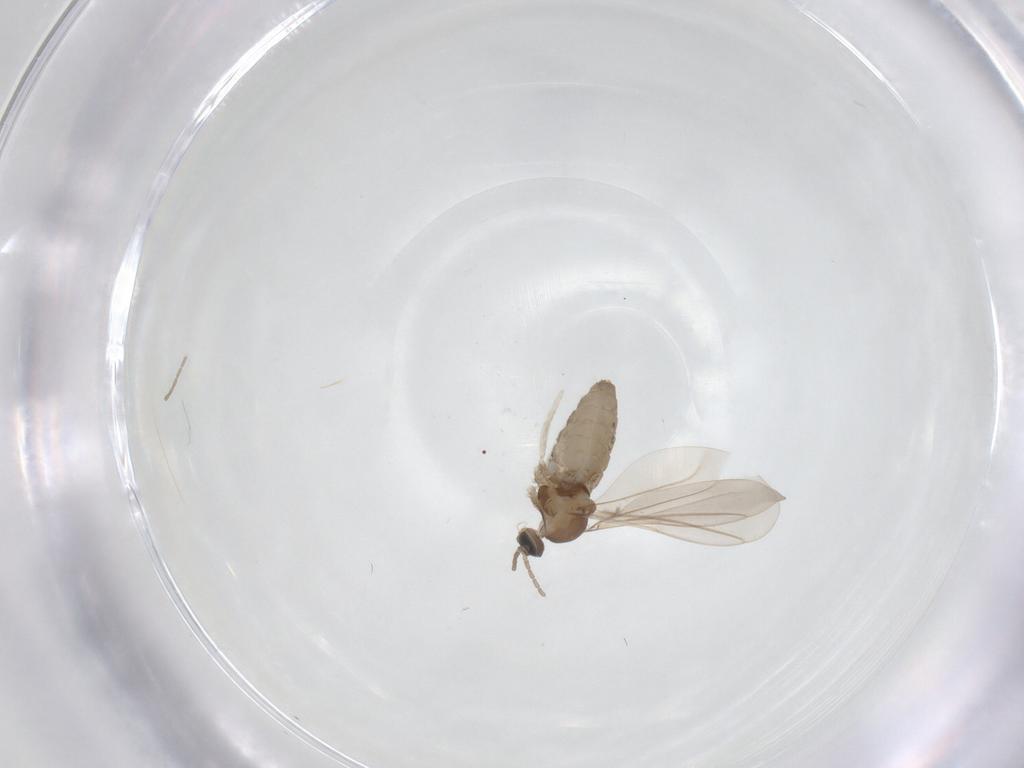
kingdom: Animalia
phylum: Arthropoda
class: Insecta
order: Diptera
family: Cecidomyiidae
